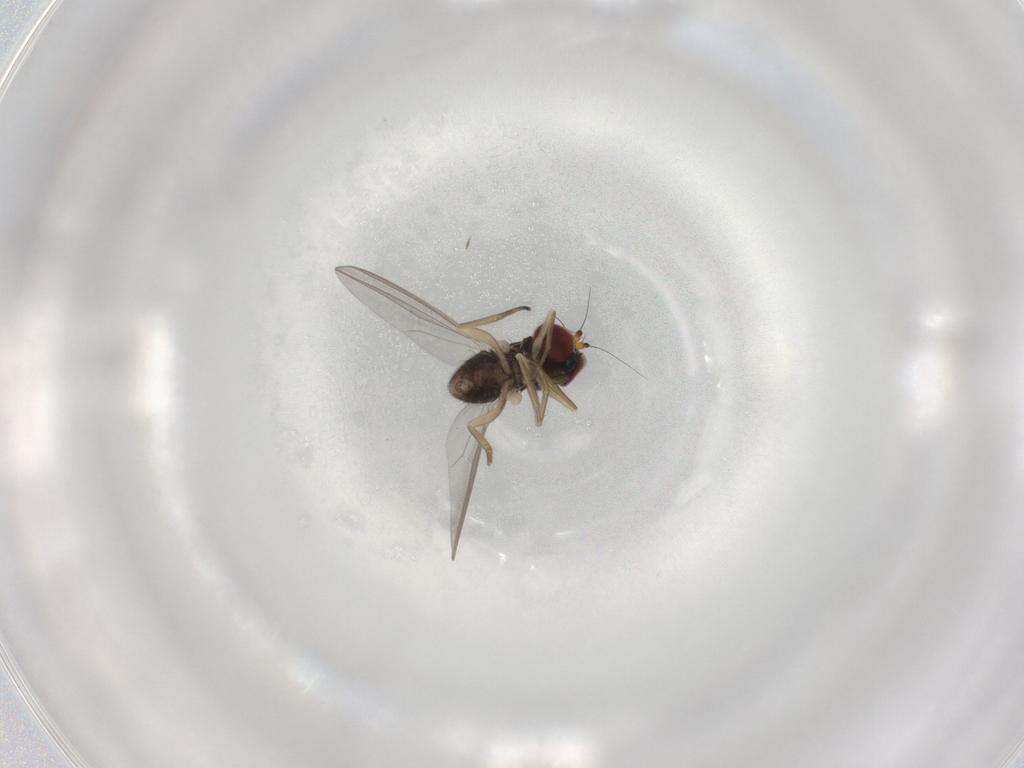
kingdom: Animalia
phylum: Arthropoda
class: Insecta
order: Diptera
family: Dolichopodidae
